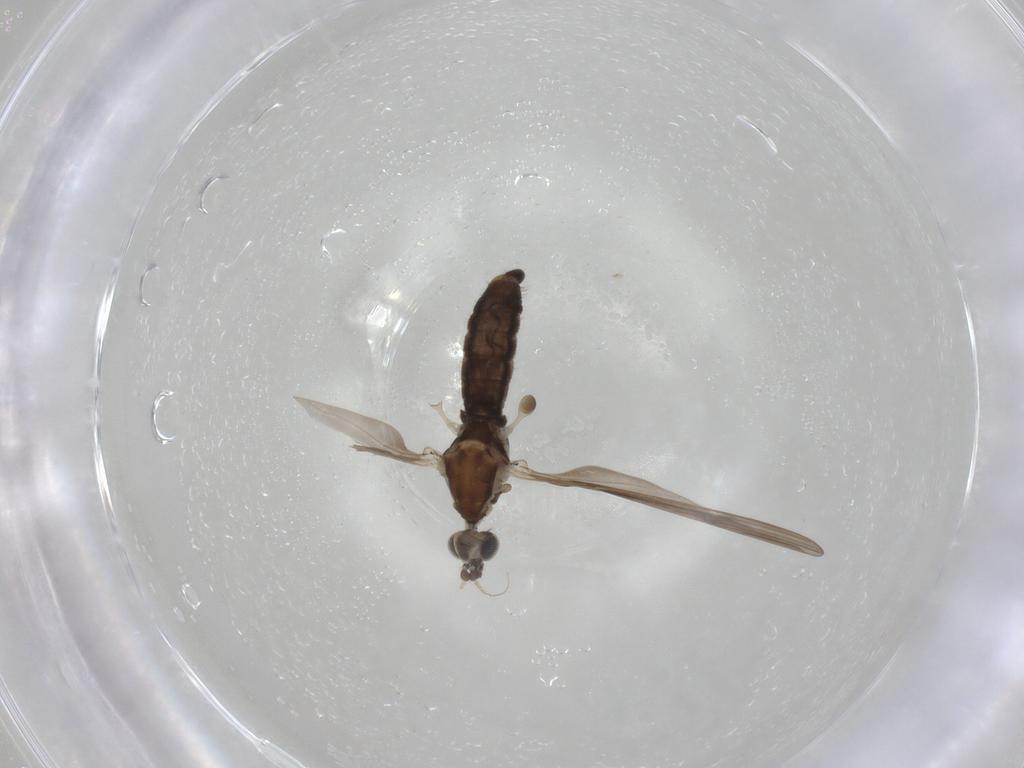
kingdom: Animalia
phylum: Arthropoda
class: Insecta
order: Diptera
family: Limoniidae
